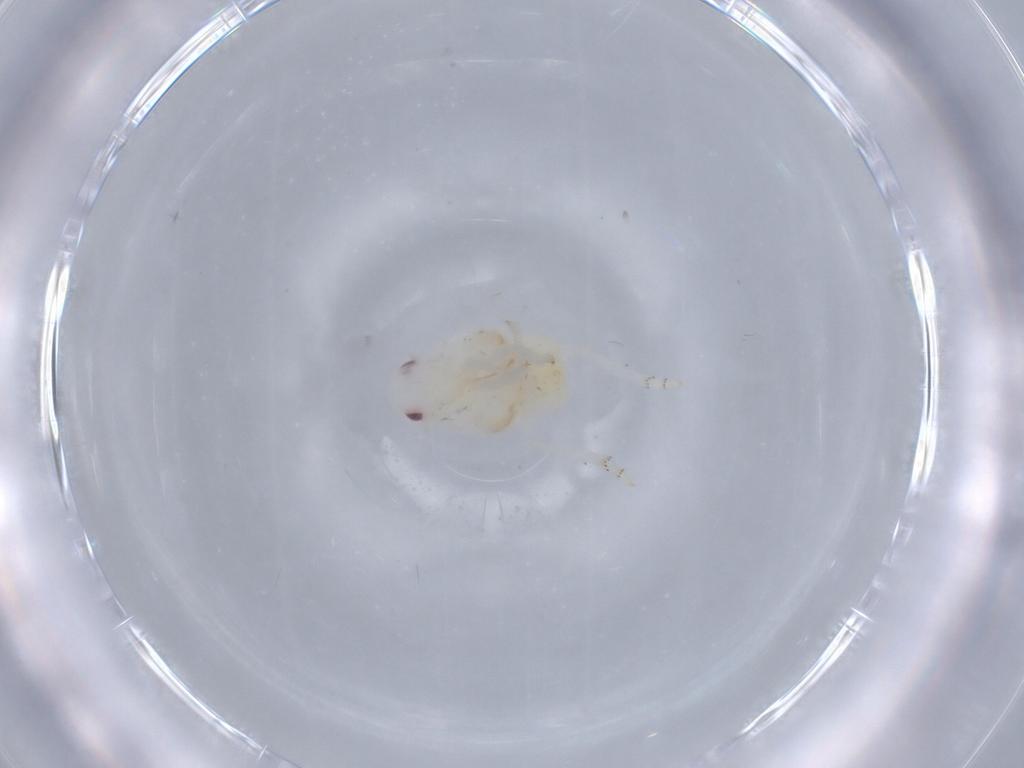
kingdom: Animalia
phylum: Arthropoda
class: Insecta
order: Hemiptera
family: Flatidae
